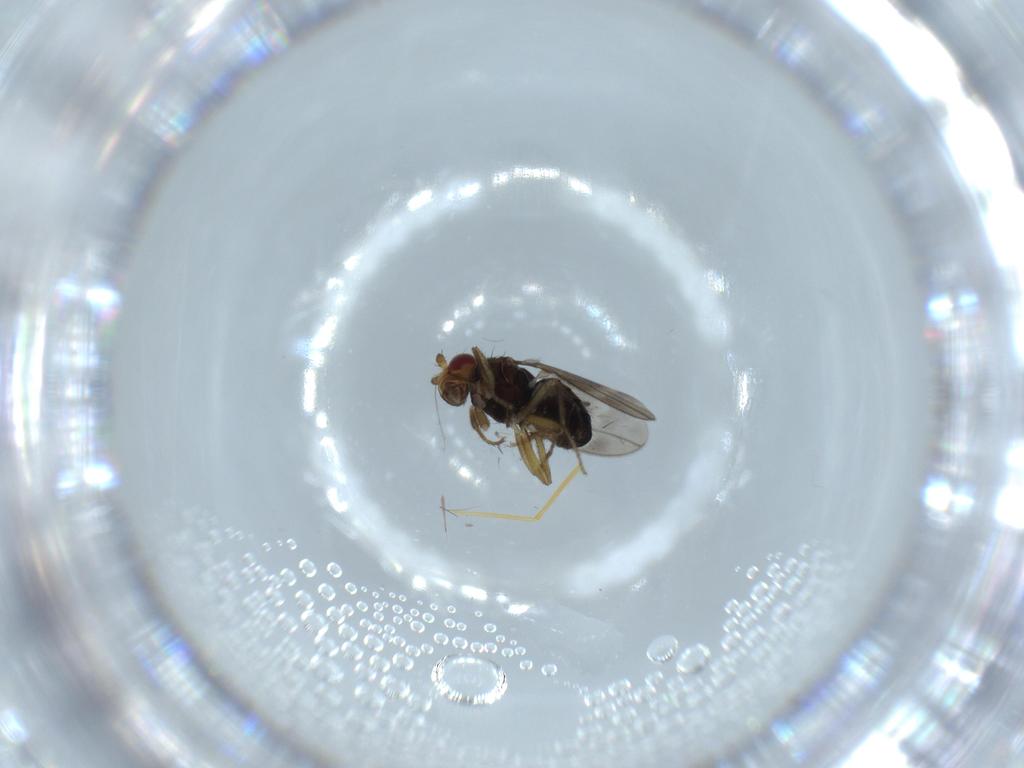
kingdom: Animalia
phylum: Arthropoda
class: Insecta
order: Diptera
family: Sphaeroceridae
